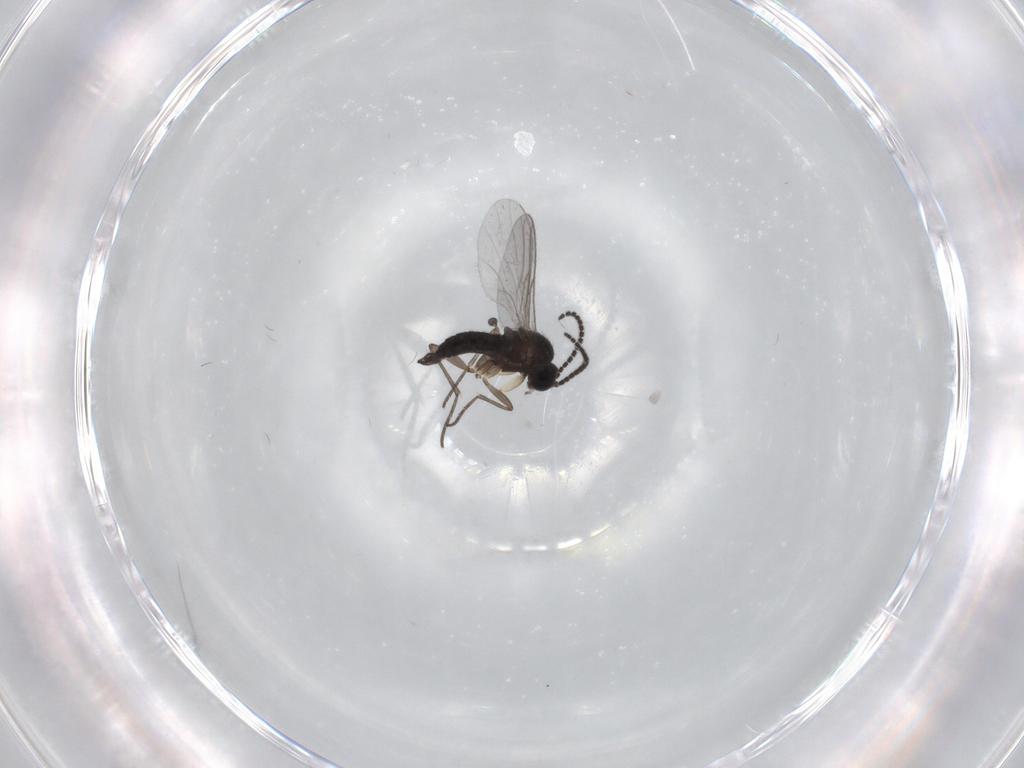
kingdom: Animalia
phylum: Arthropoda
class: Insecta
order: Diptera
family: Sciaridae
